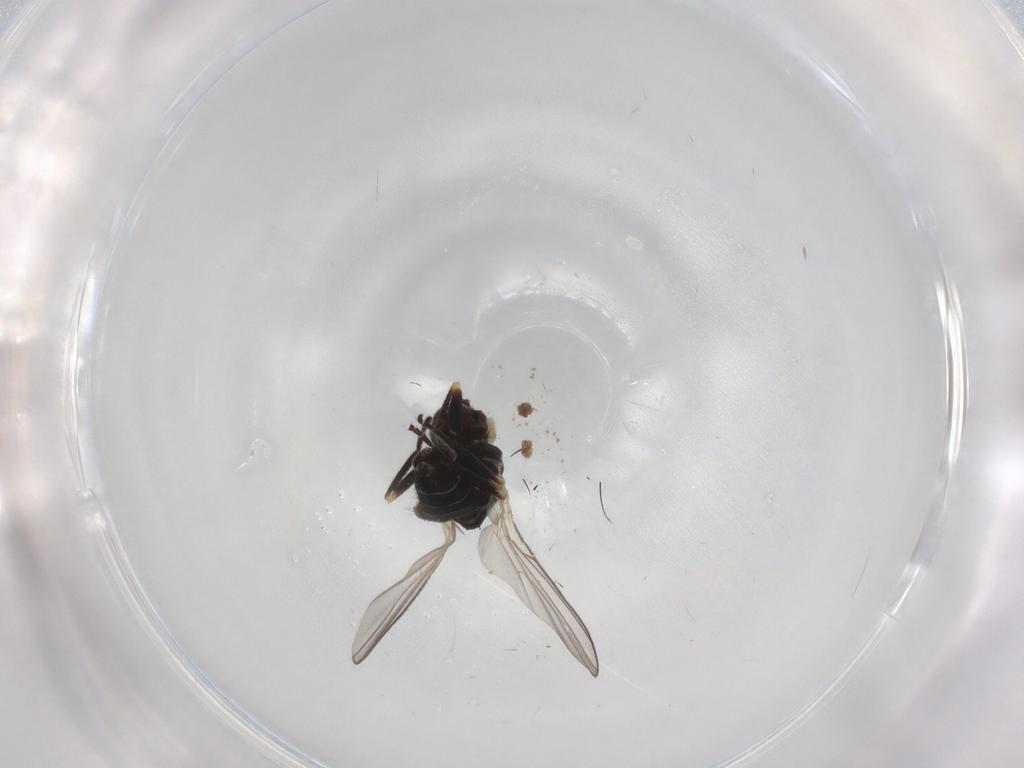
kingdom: Animalia
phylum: Arthropoda
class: Insecta
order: Diptera
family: Agromyzidae
